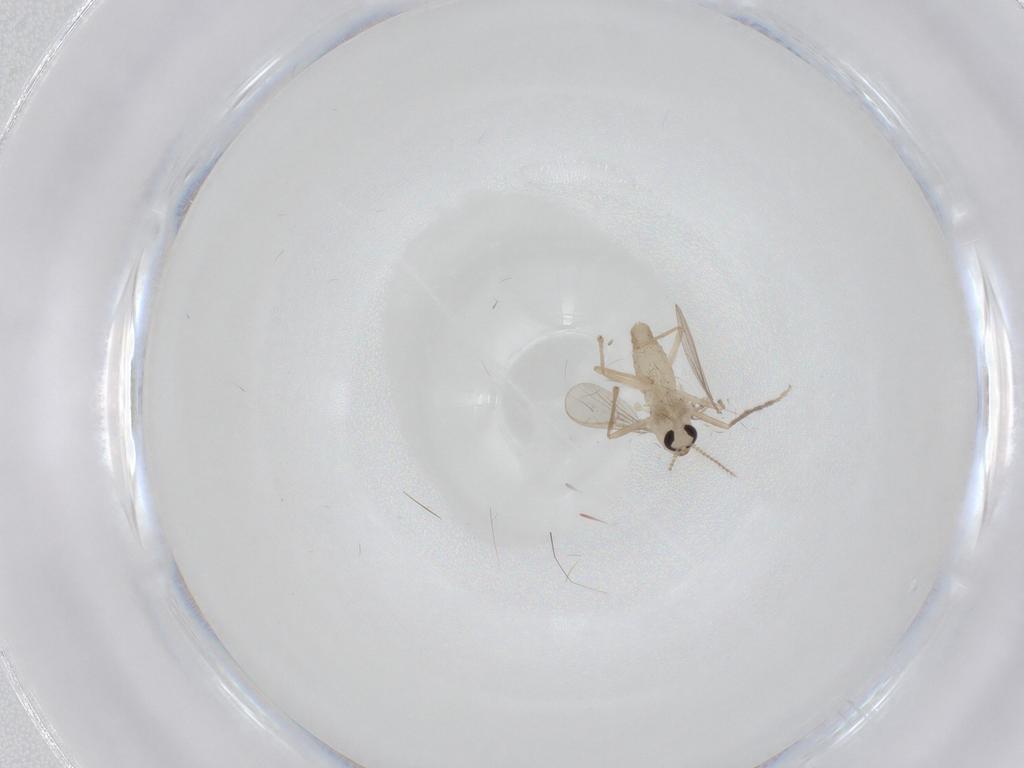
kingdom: Animalia
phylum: Arthropoda
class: Insecta
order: Diptera
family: Chironomidae
